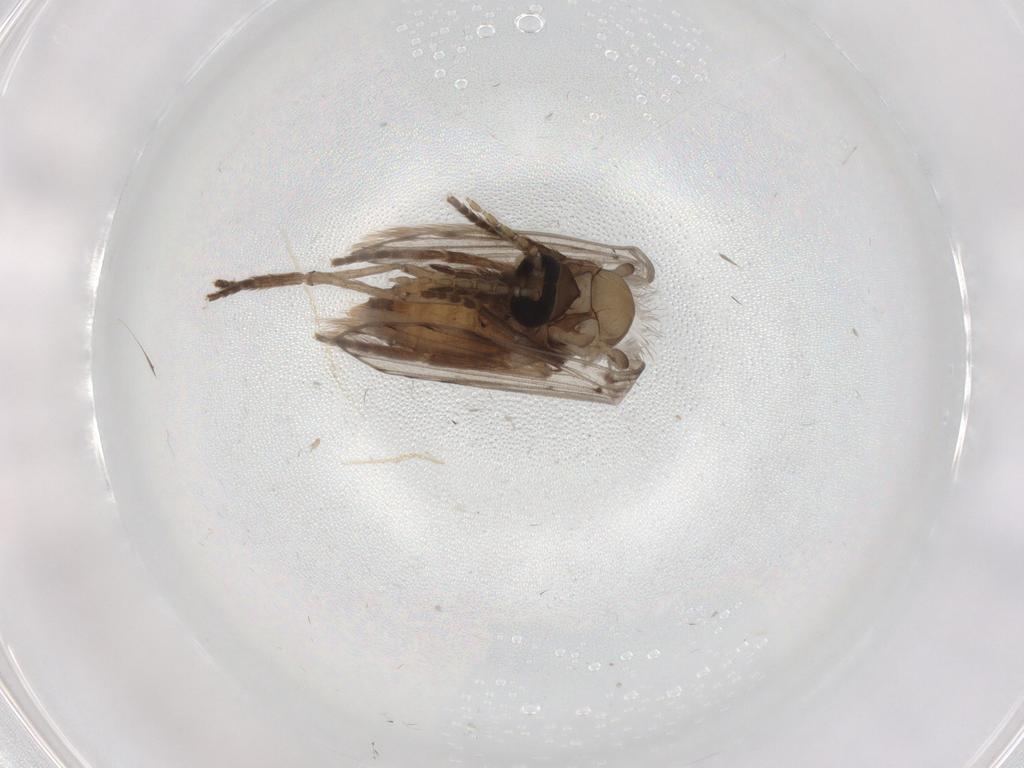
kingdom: Animalia
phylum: Arthropoda
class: Insecta
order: Diptera
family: Psychodidae
